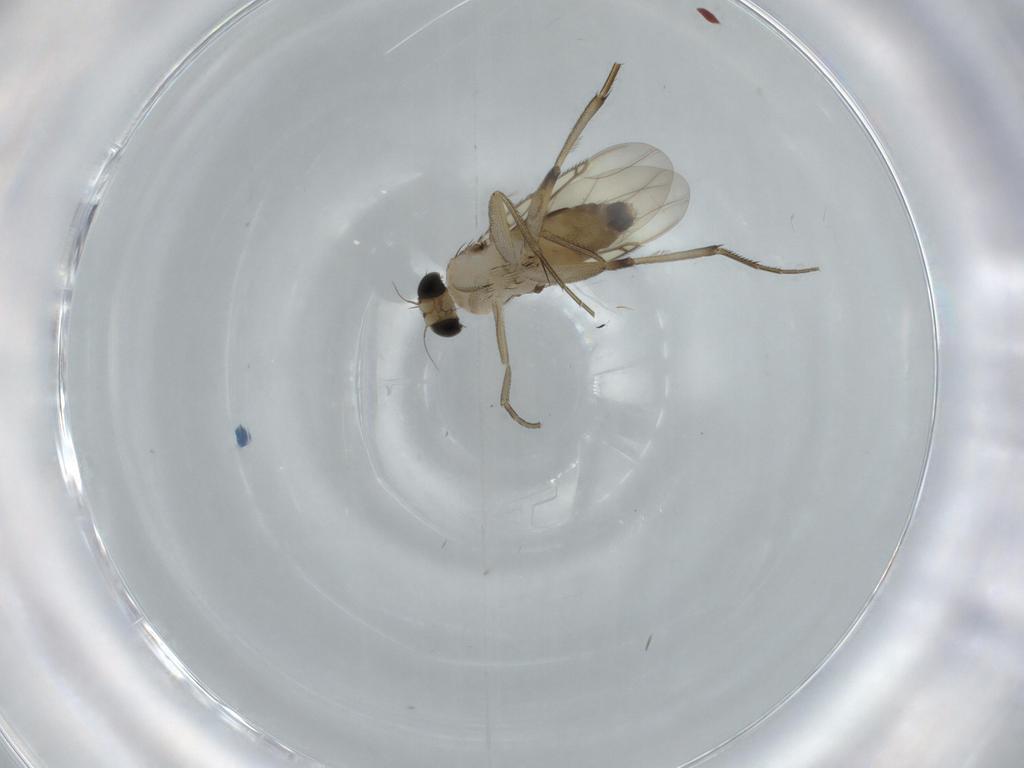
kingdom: Animalia
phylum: Arthropoda
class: Insecta
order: Diptera
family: Phoridae
